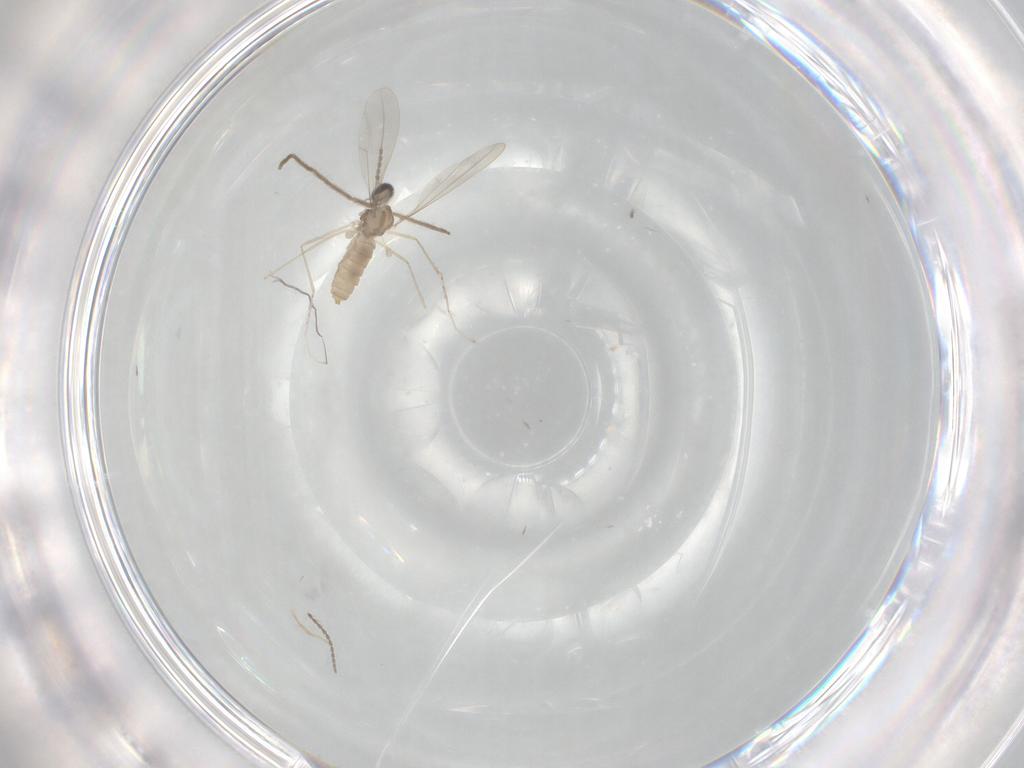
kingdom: Animalia
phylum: Arthropoda
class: Insecta
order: Diptera
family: Cecidomyiidae
